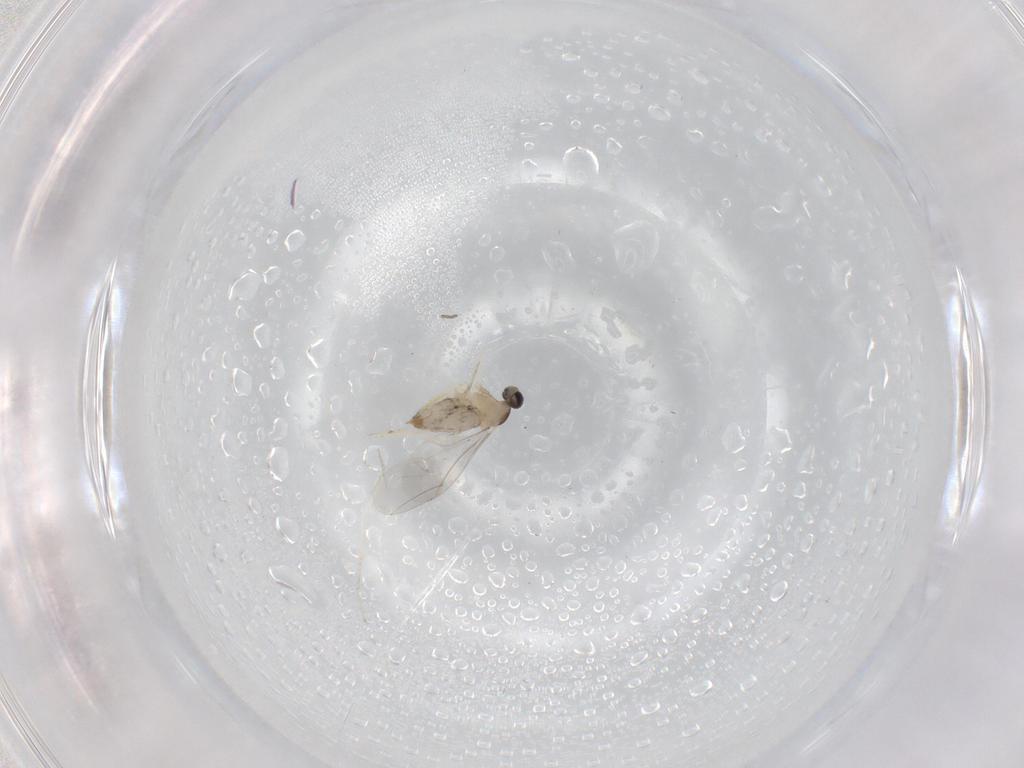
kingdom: Animalia
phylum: Arthropoda
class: Insecta
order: Diptera
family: Cecidomyiidae
